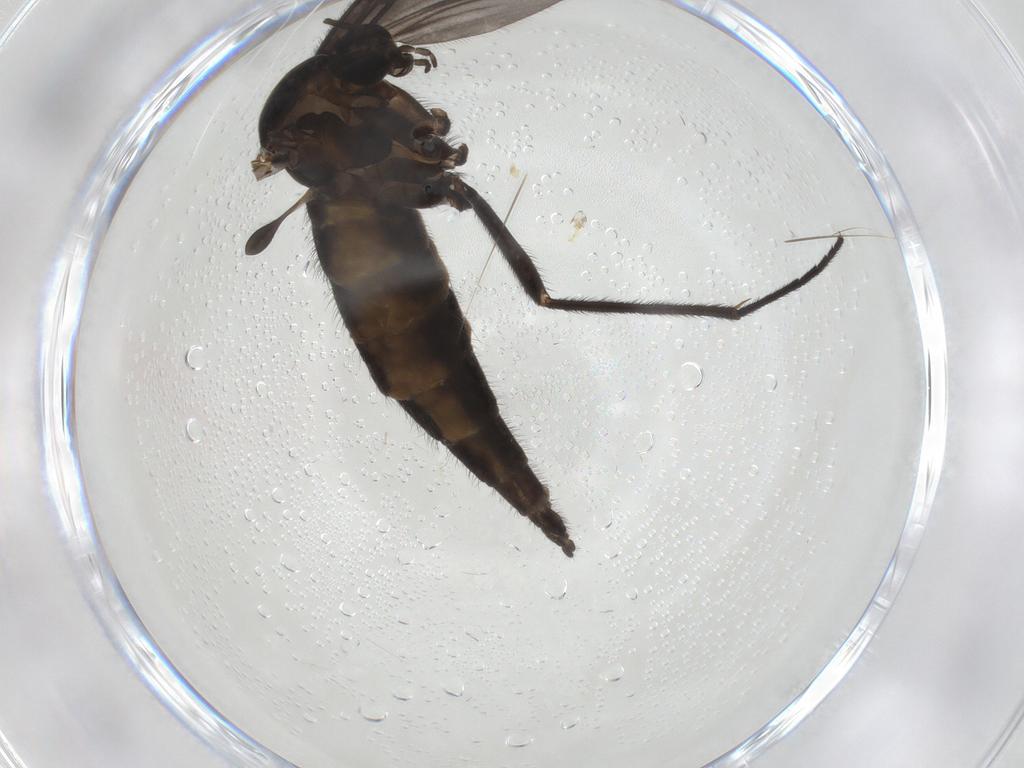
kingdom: Animalia
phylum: Arthropoda
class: Insecta
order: Diptera
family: Sciaridae
